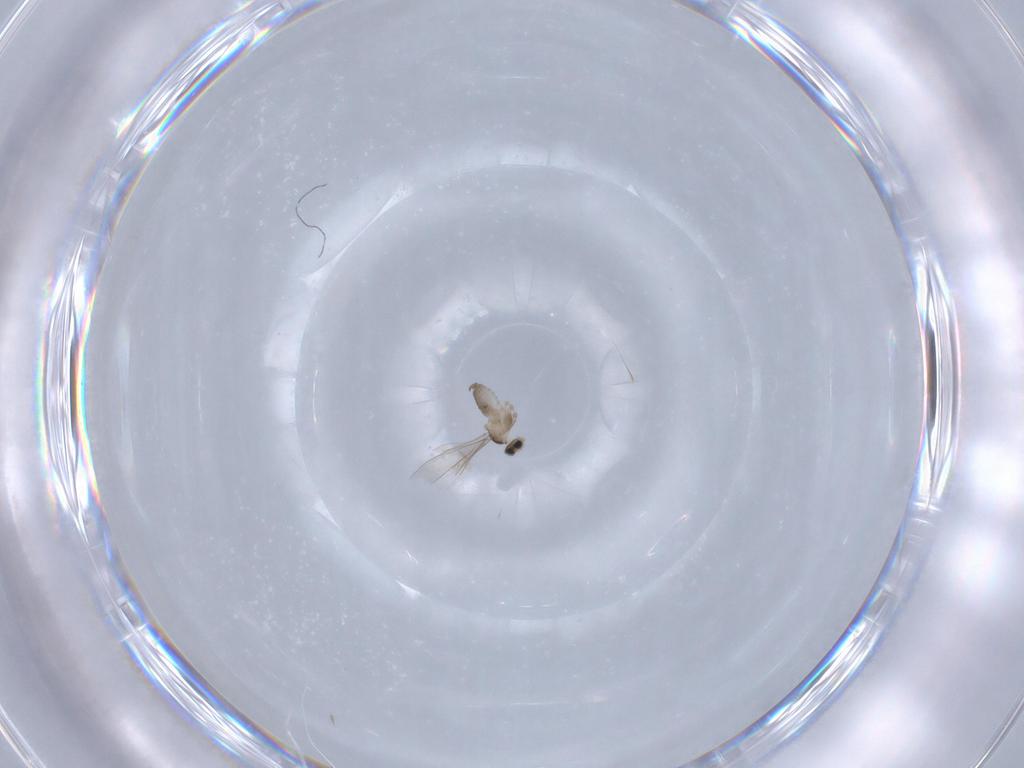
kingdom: Animalia
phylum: Arthropoda
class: Insecta
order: Diptera
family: Cecidomyiidae
